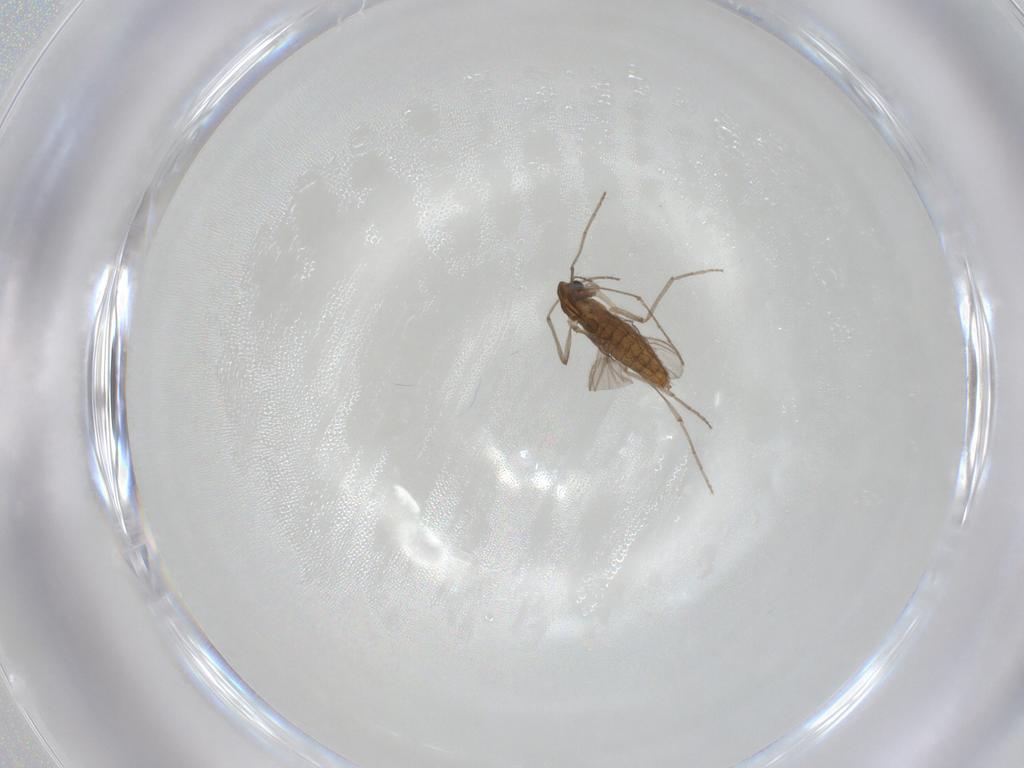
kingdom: Animalia
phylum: Arthropoda
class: Insecta
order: Diptera
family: Chironomidae
